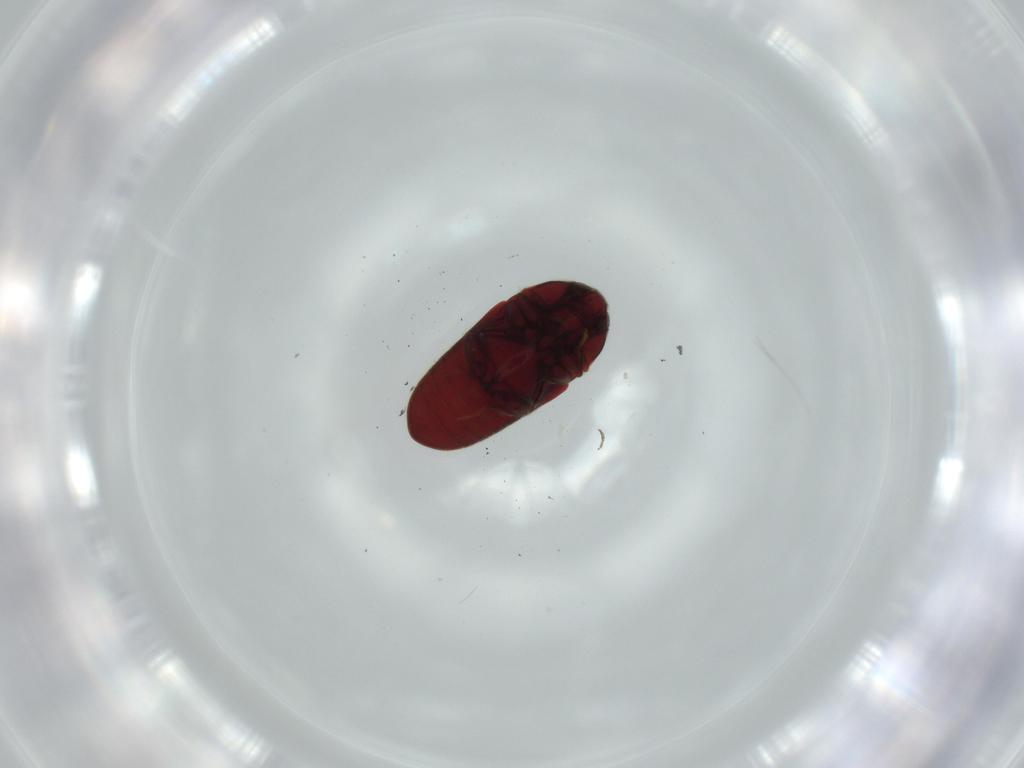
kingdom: Animalia
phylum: Arthropoda
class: Insecta
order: Coleoptera
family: Throscidae
